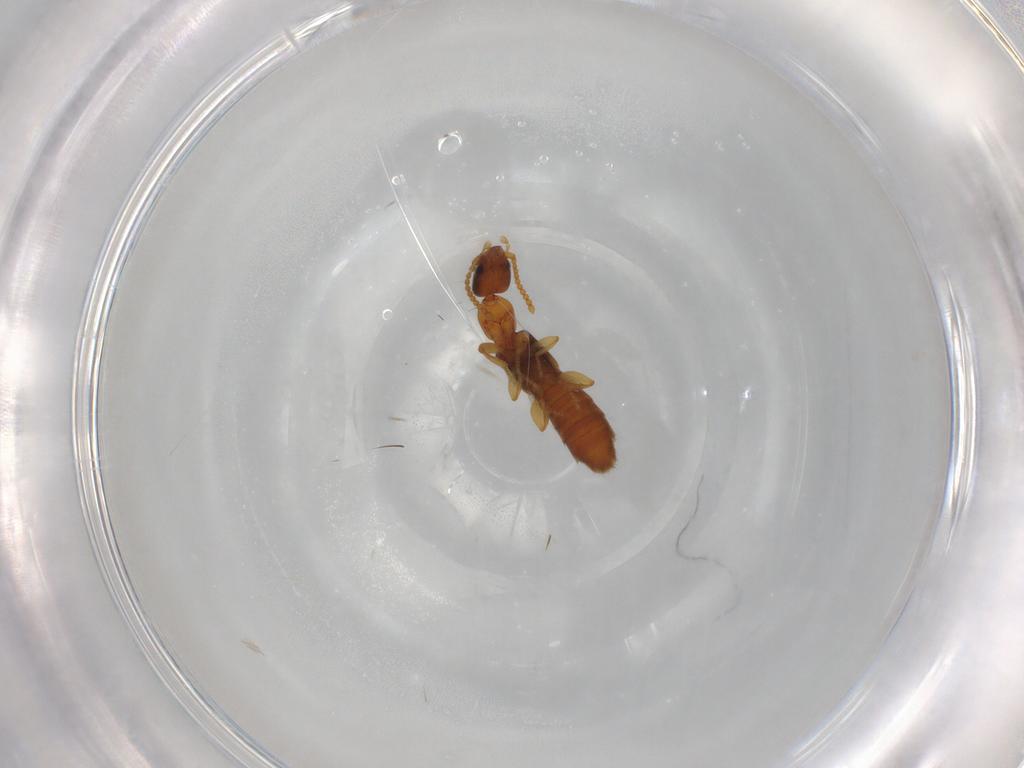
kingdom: Animalia
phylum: Arthropoda
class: Insecta
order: Coleoptera
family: Staphylinidae
